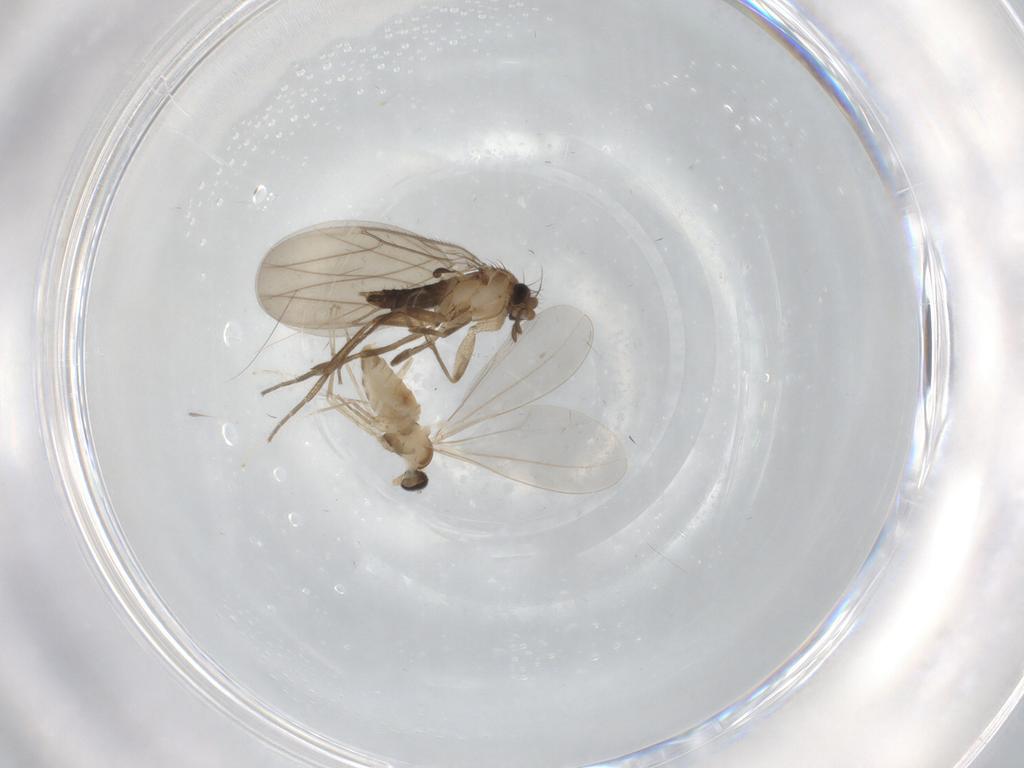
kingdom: Animalia
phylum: Arthropoda
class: Insecta
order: Diptera
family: Cecidomyiidae
